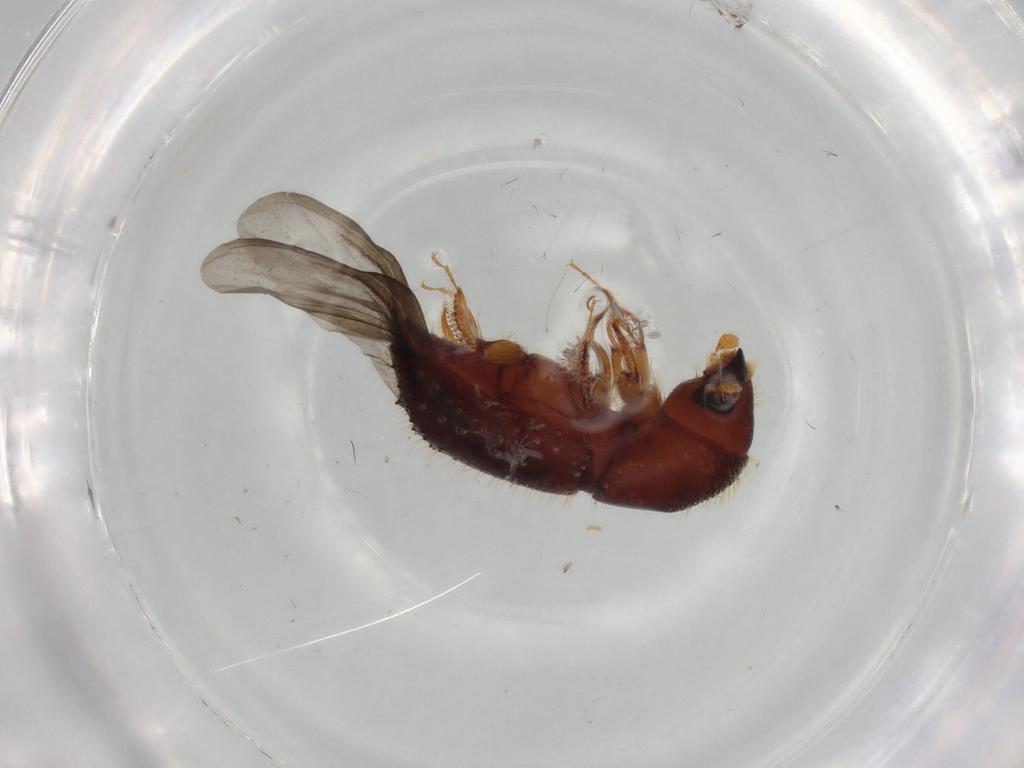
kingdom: Animalia
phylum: Arthropoda
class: Insecta
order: Coleoptera
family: Curculionidae
